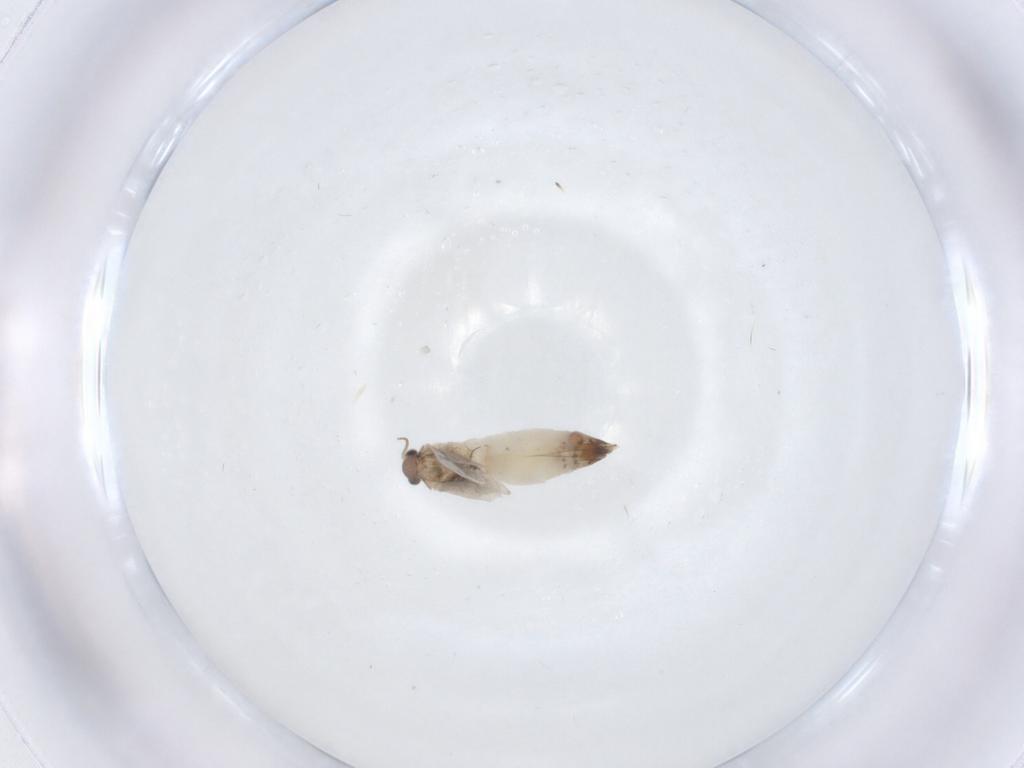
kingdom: Animalia
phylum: Arthropoda
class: Insecta
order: Lepidoptera
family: Nepticulidae
